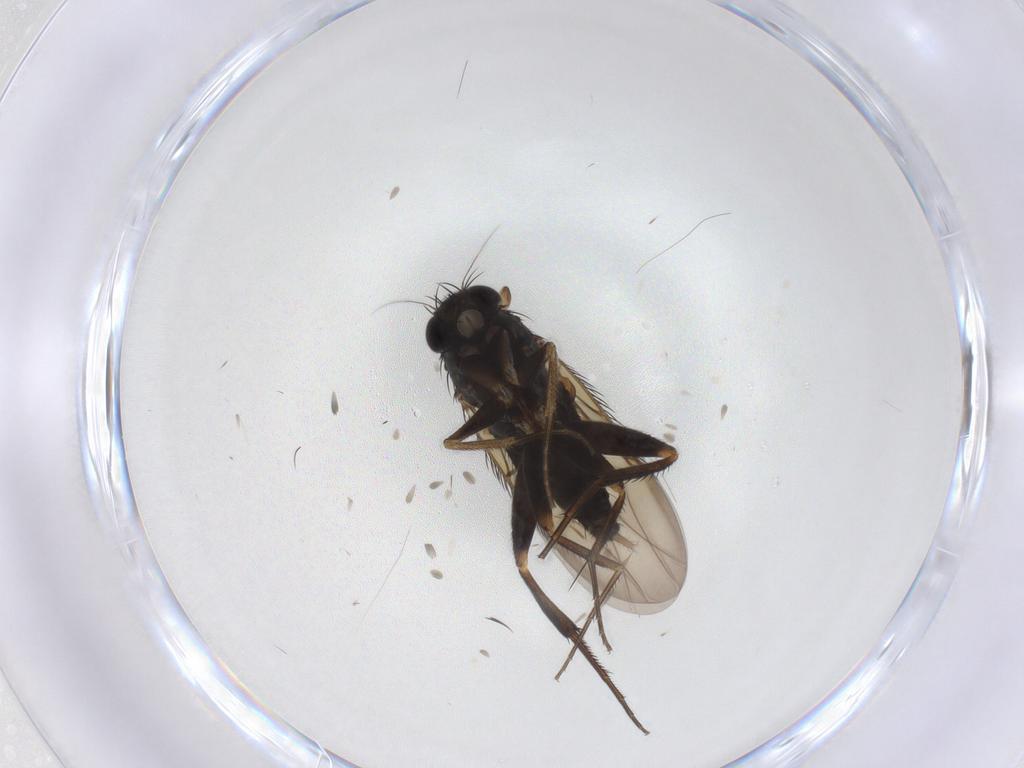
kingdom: Animalia
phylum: Arthropoda
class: Insecta
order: Diptera
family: Phoridae
